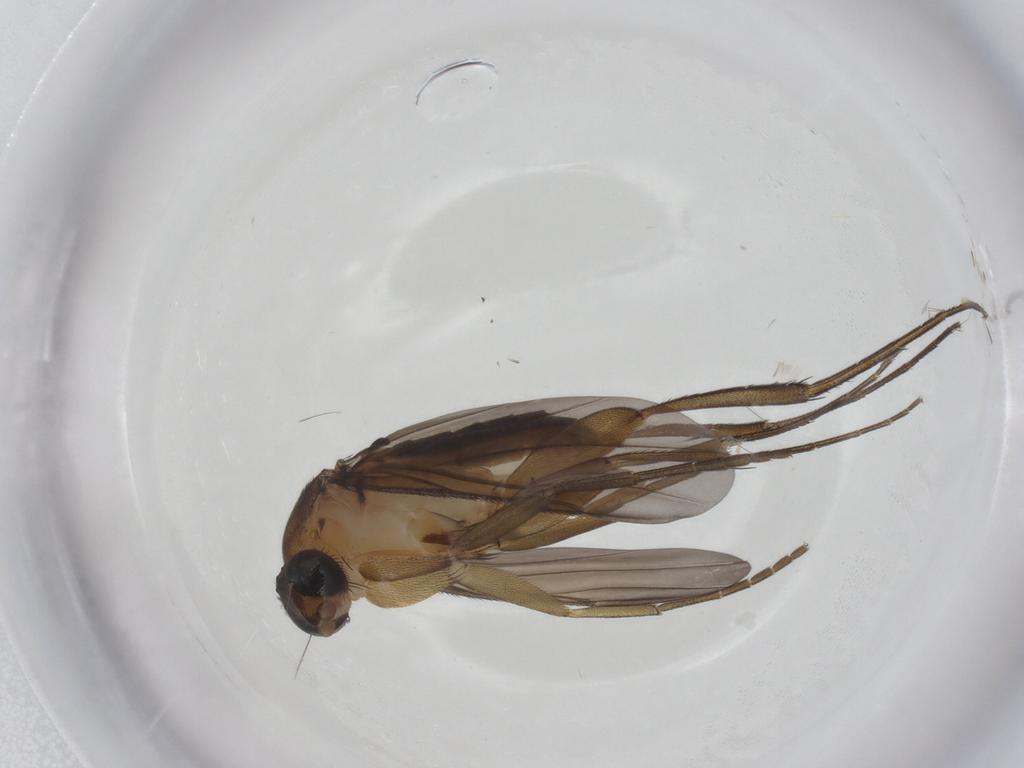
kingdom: Animalia
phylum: Arthropoda
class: Insecta
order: Diptera
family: Phoridae
